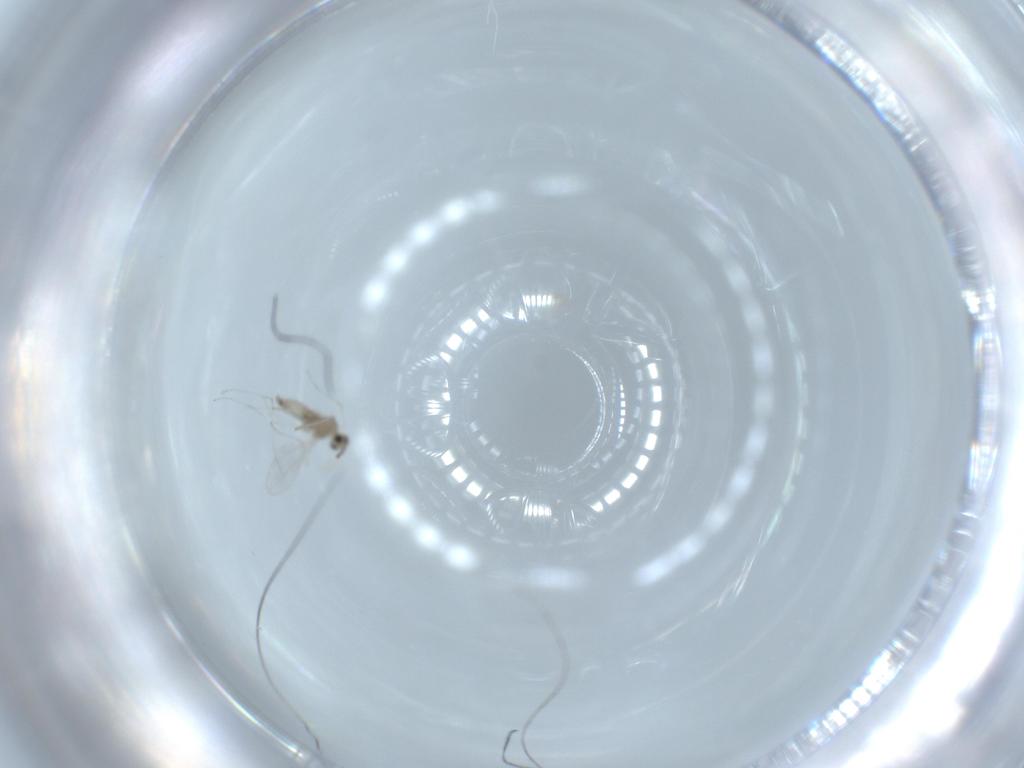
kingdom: Animalia
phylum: Arthropoda
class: Insecta
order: Diptera
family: Cecidomyiidae
